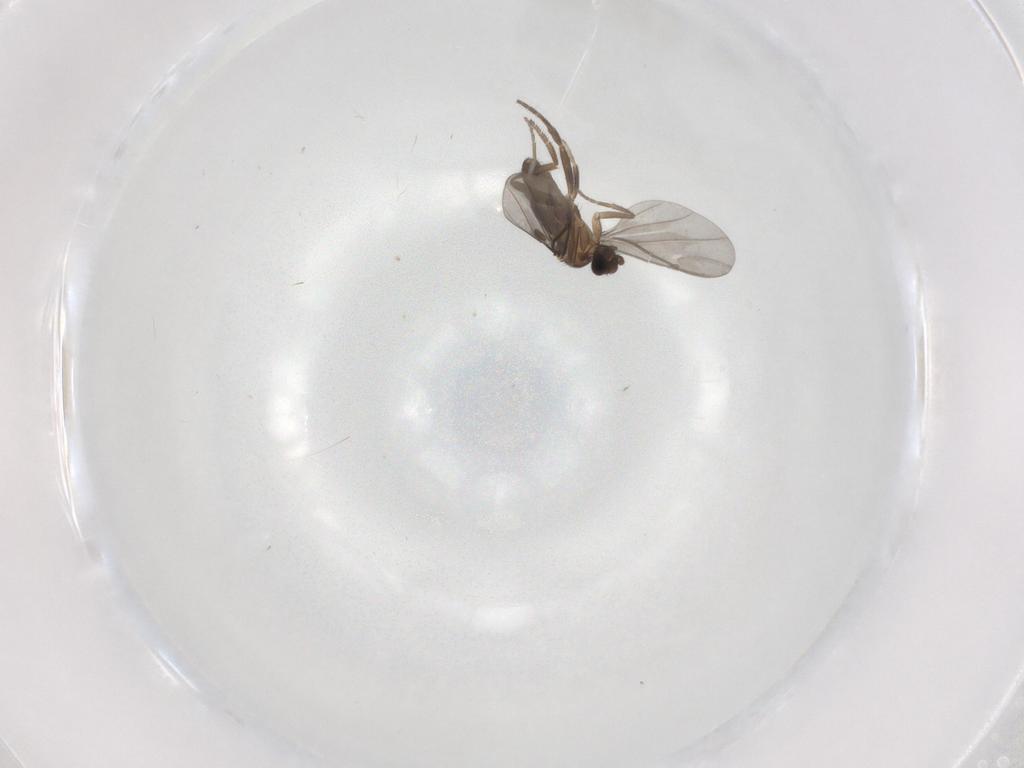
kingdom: Animalia
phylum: Arthropoda
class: Insecta
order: Diptera
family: Phoridae
